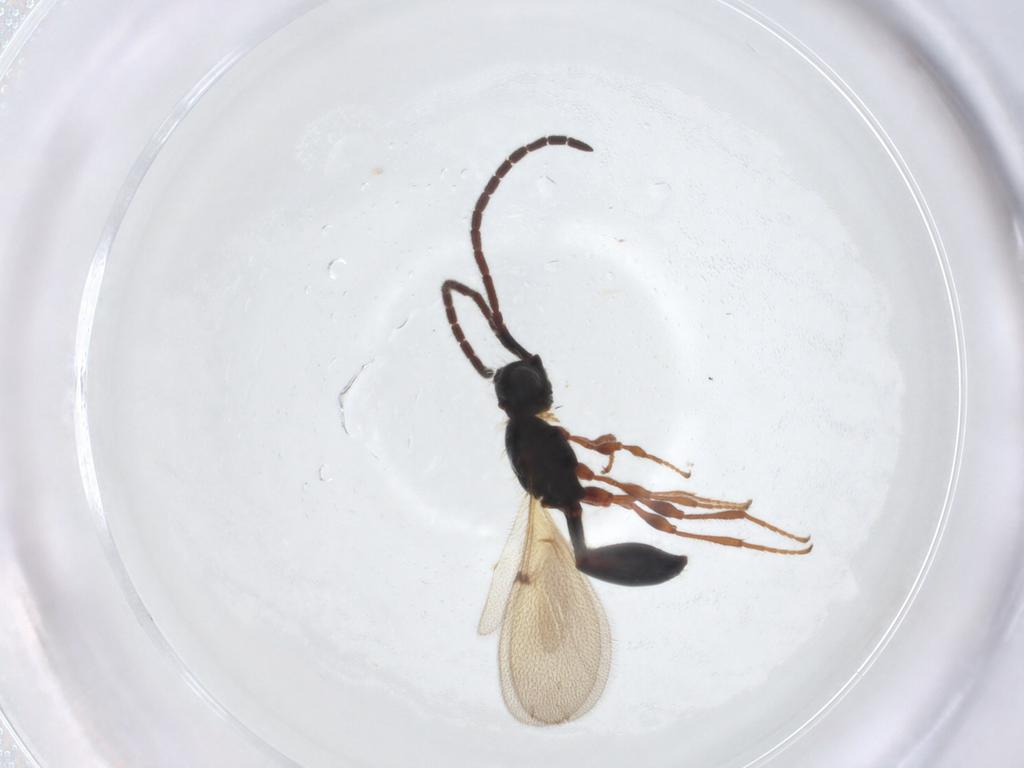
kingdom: Animalia
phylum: Arthropoda
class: Insecta
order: Hymenoptera
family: Diapriidae
